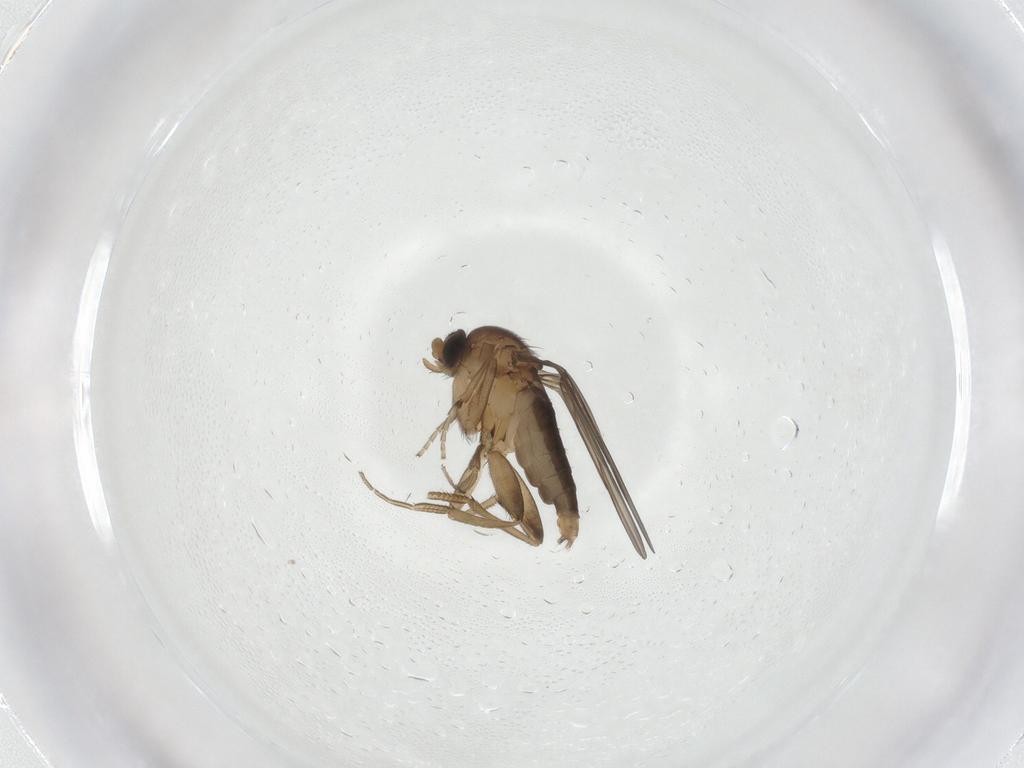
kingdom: Animalia
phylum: Arthropoda
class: Insecta
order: Diptera
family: Phoridae
